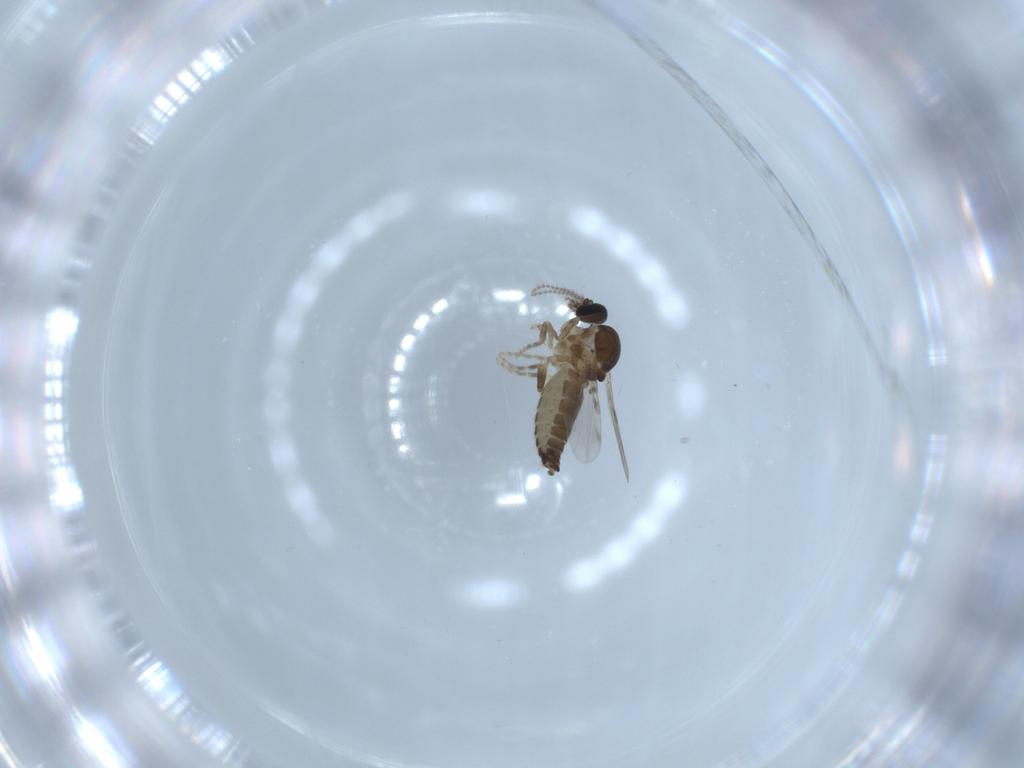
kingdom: Animalia
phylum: Arthropoda
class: Insecta
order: Diptera
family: Ceratopogonidae
